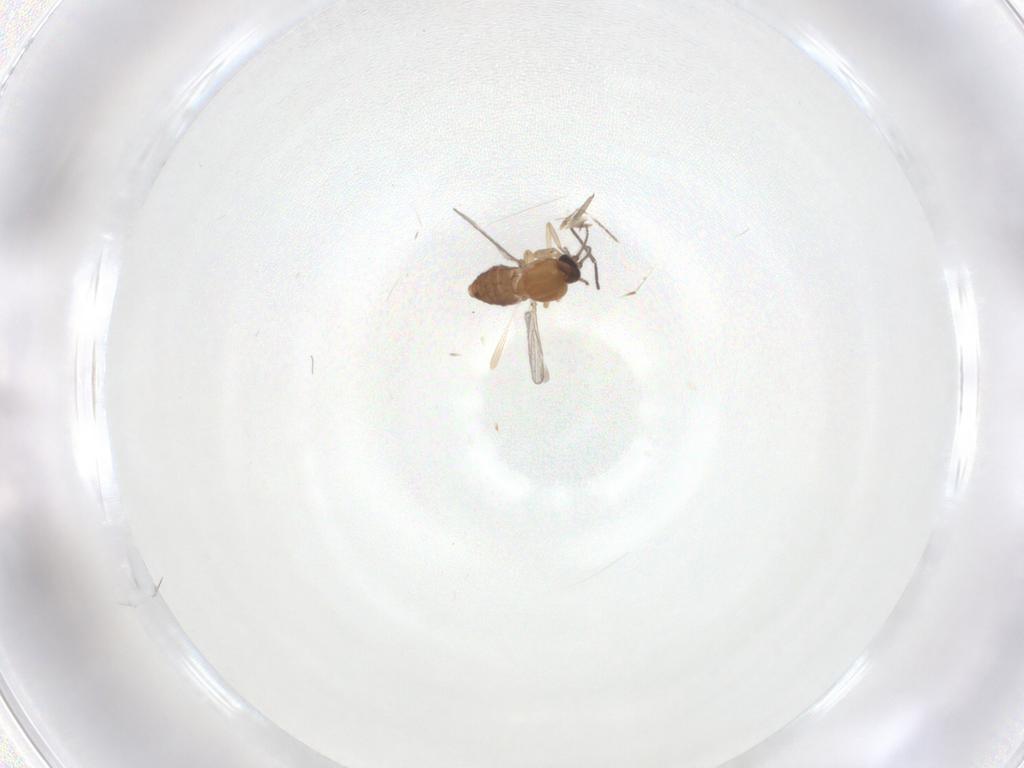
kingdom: Animalia
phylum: Arthropoda
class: Insecta
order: Diptera
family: Ceratopogonidae
